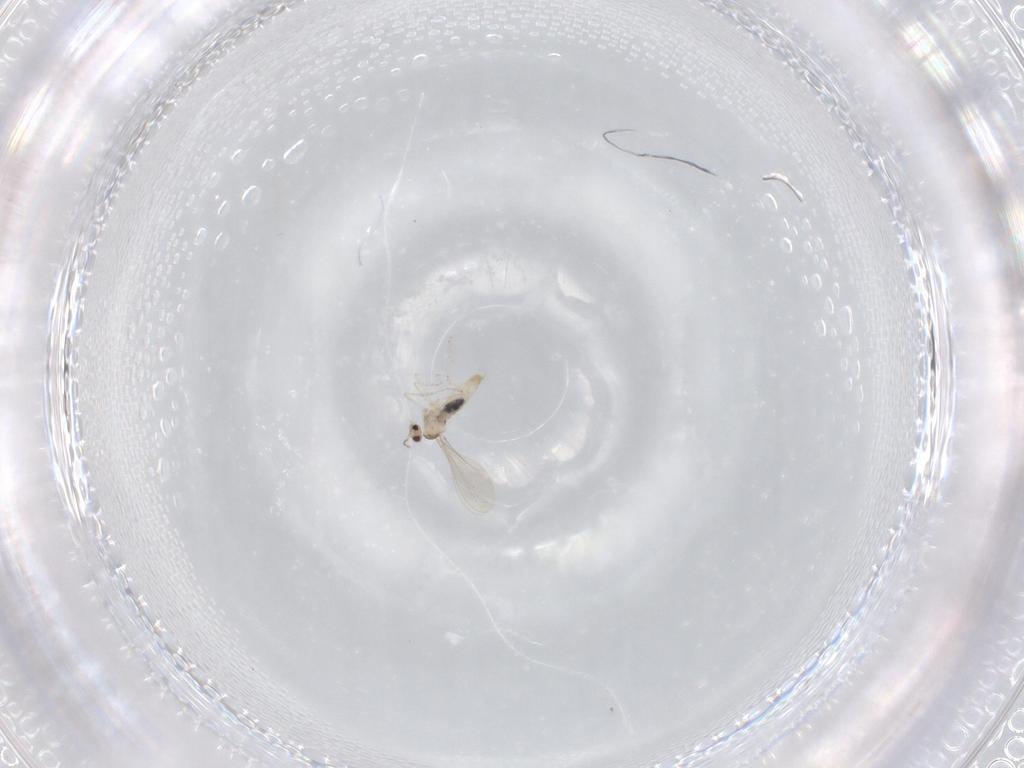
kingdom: Animalia
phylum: Arthropoda
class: Insecta
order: Diptera
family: Cecidomyiidae
